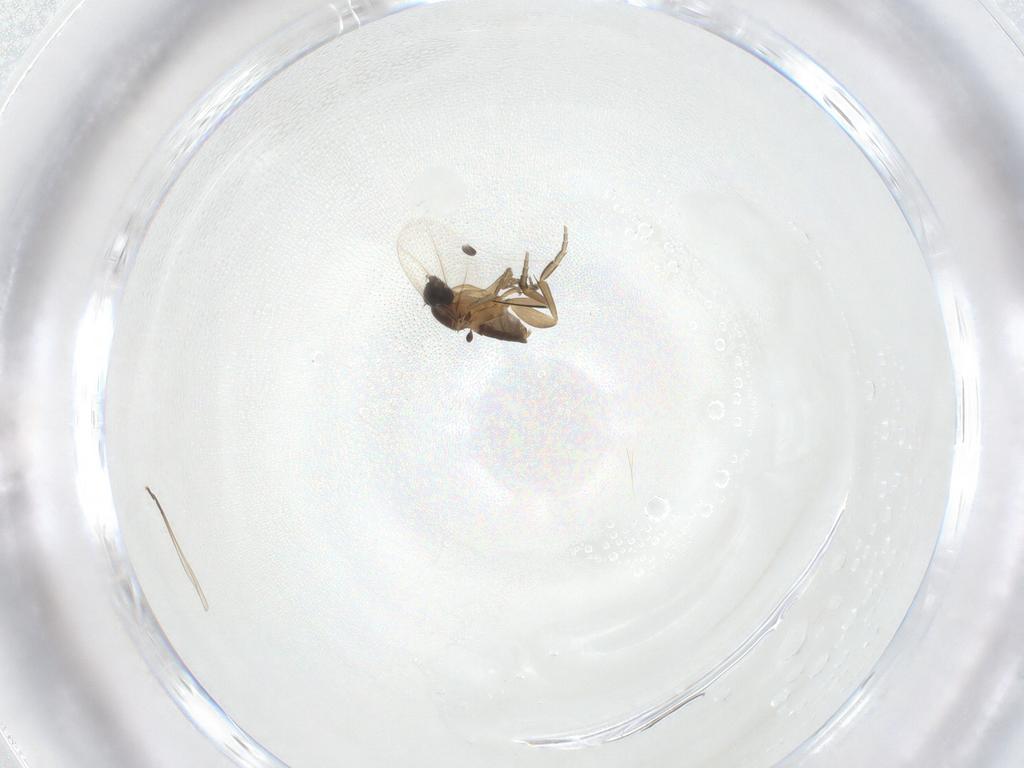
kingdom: Animalia
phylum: Arthropoda
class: Insecta
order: Diptera
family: Phoridae
